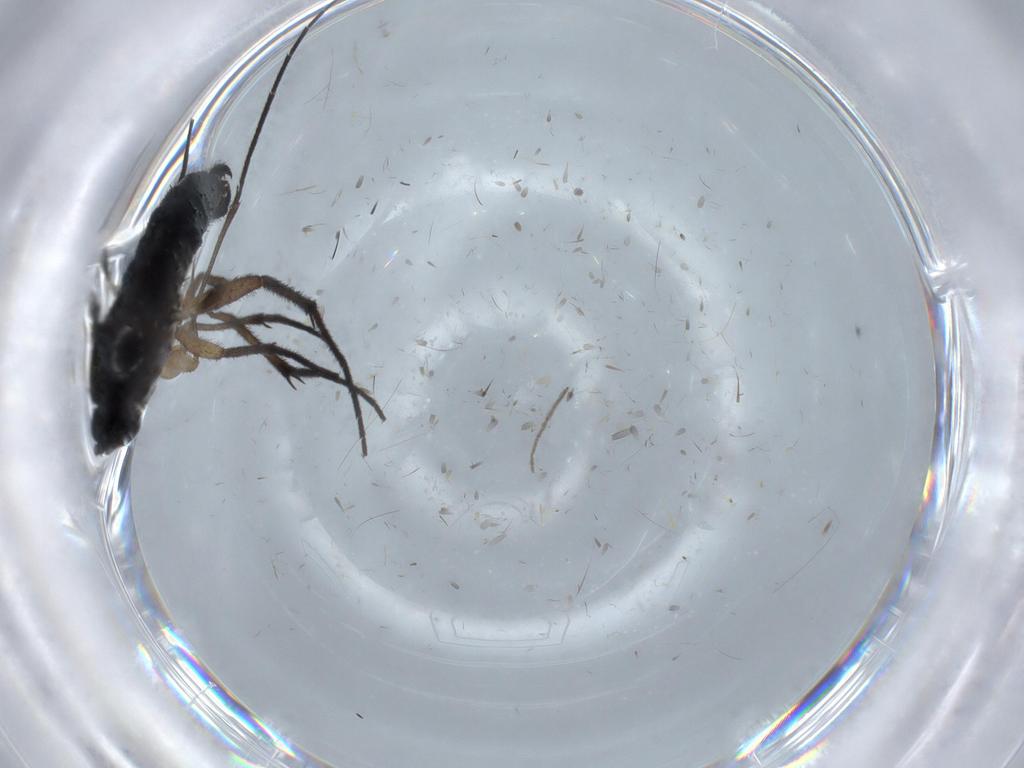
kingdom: Animalia
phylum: Arthropoda
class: Insecta
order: Diptera
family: Sciaridae
